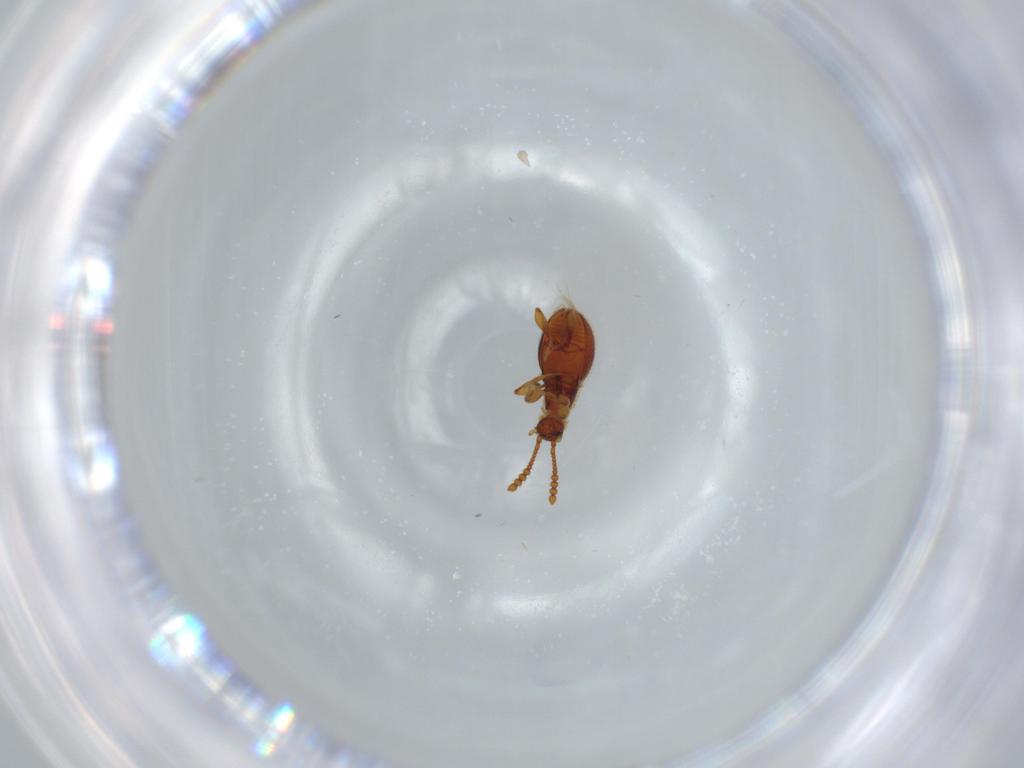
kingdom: Animalia
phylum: Arthropoda
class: Insecta
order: Coleoptera
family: Staphylinidae
